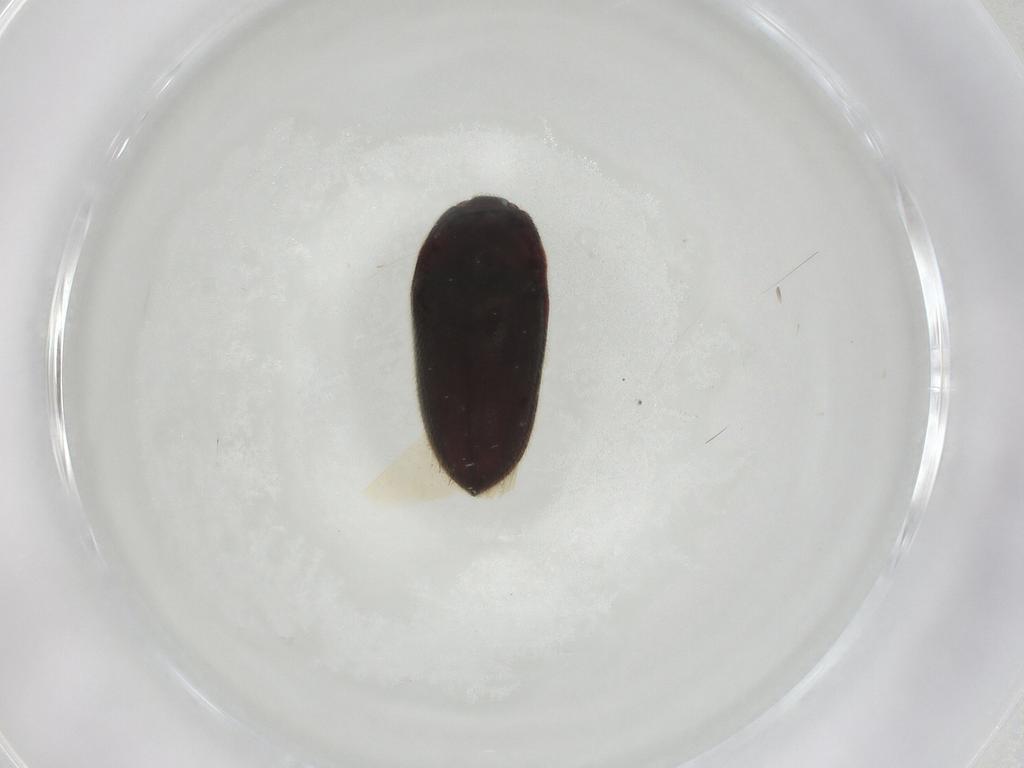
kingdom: Animalia
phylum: Arthropoda
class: Insecta
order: Coleoptera
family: Throscidae
